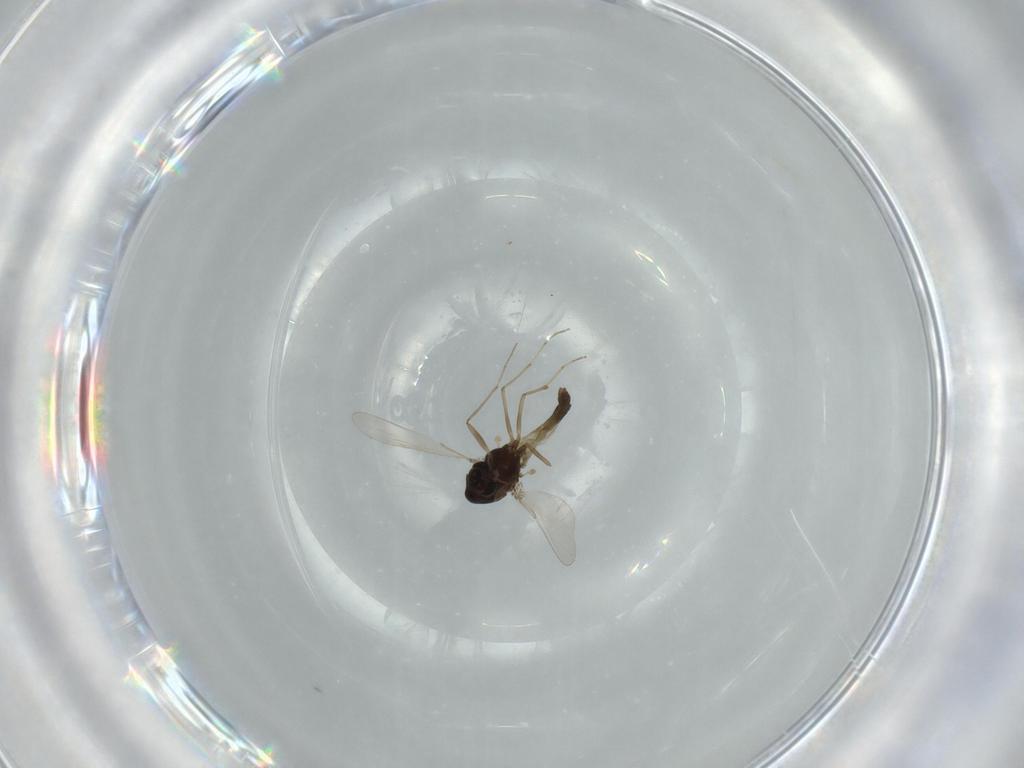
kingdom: Animalia
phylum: Arthropoda
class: Insecta
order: Diptera
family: Chironomidae
